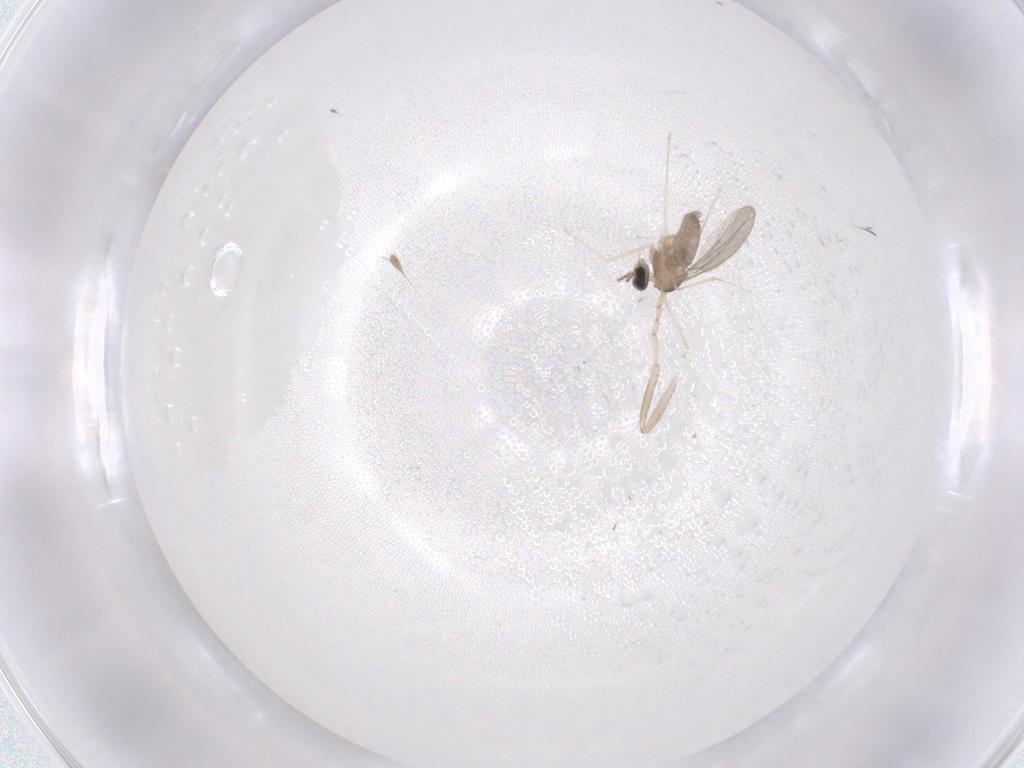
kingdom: Animalia
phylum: Arthropoda
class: Insecta
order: Diptera
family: Cecidomyiidae
